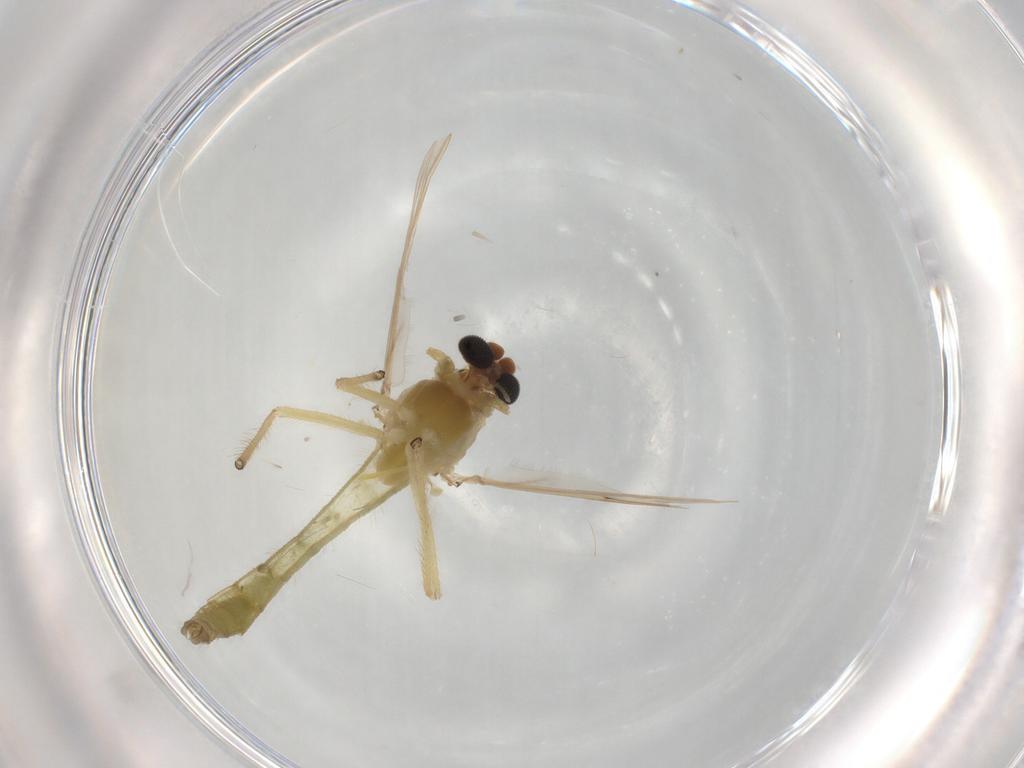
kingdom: Animalia
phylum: Arthropoda
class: Insecta
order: Diptera
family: Chironomidae
